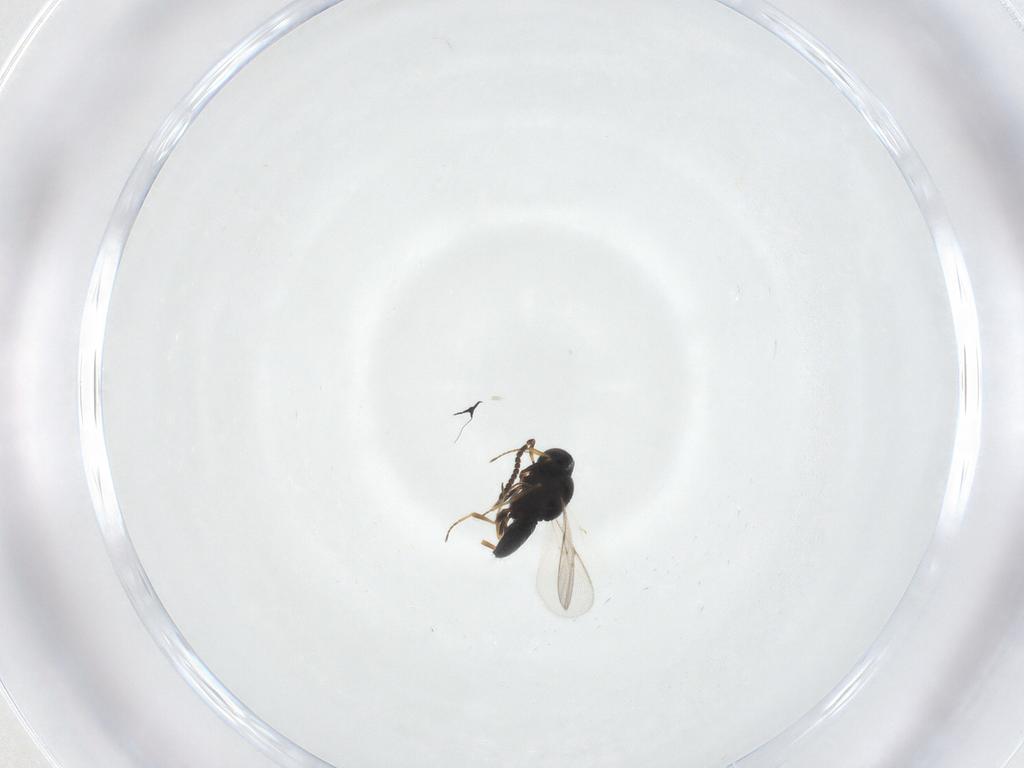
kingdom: Animalia
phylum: Arthropoda
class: Insecta
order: Hymenoptera
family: Scelionidae
